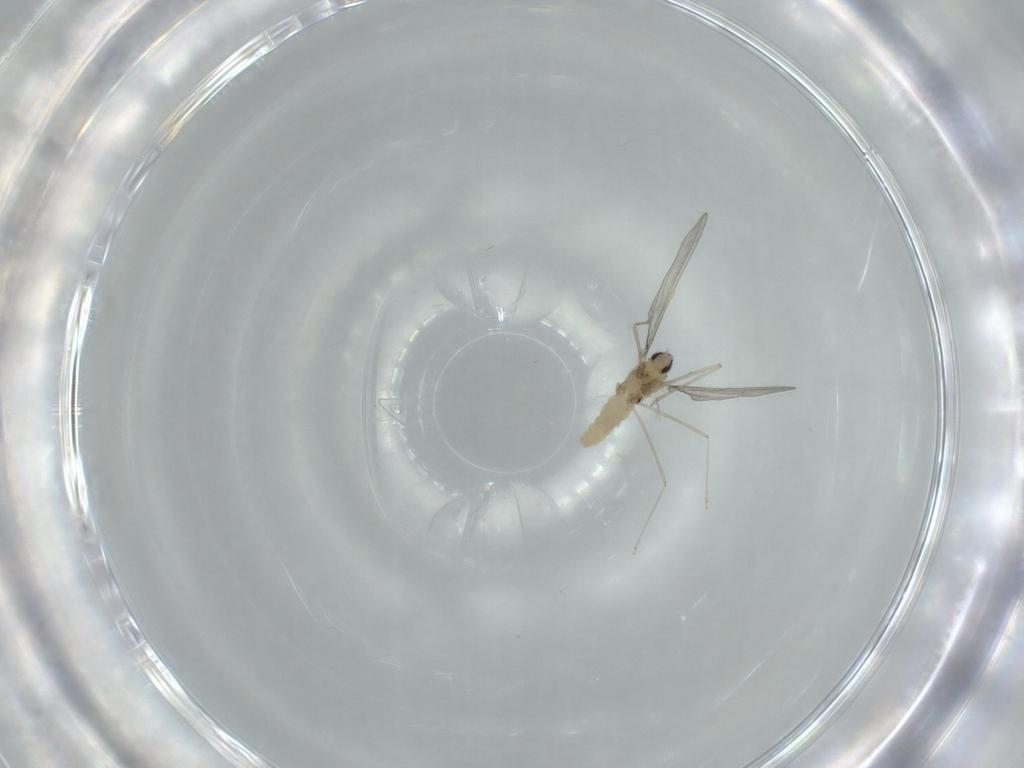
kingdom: Animalia
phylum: Arthropoda
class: Insecta
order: Diptera
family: Cecidomyiidae
